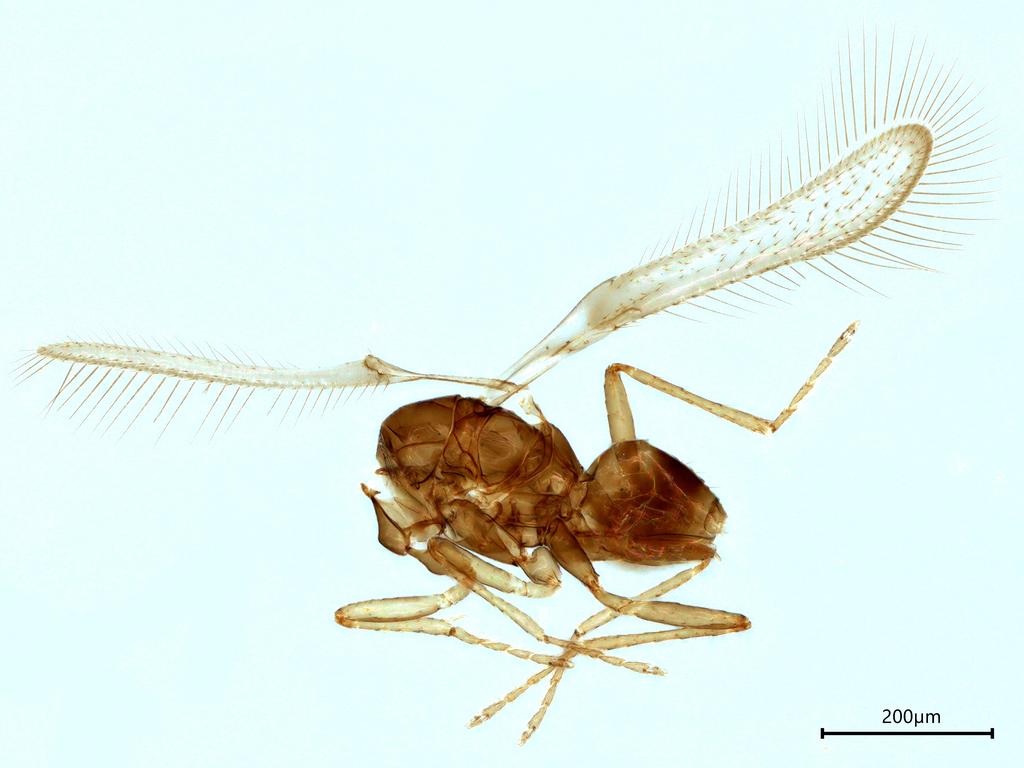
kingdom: Animalia
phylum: Arthropoda
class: Insecta
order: Hymenoptera
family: Mymaridae
